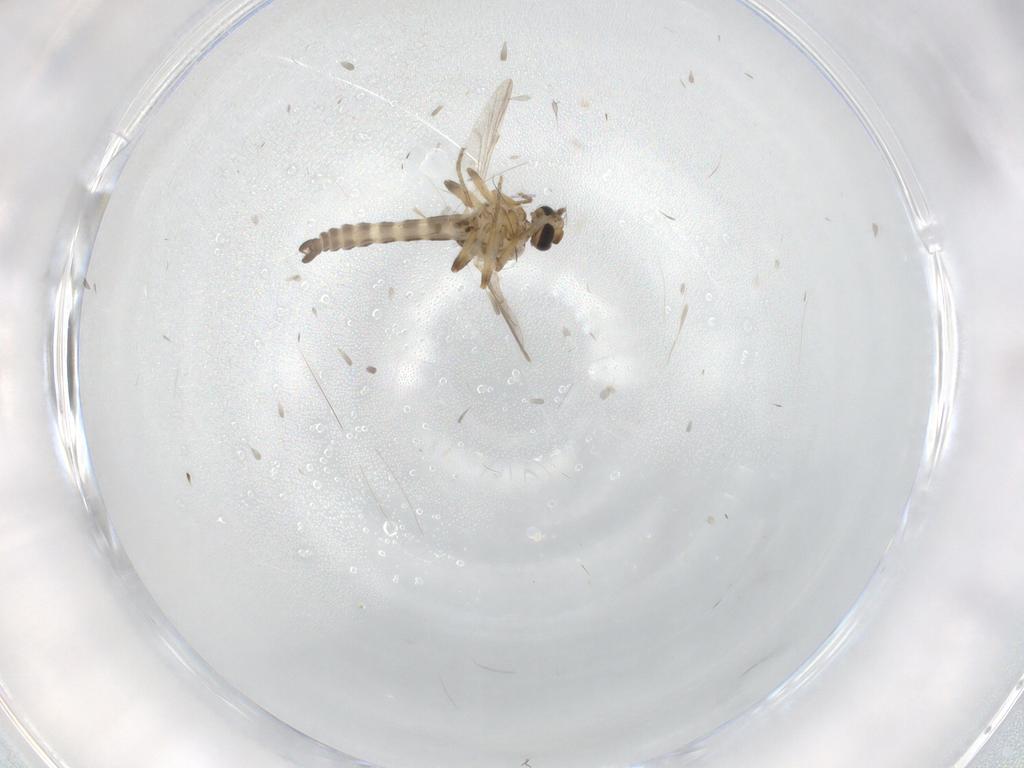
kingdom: Animalia
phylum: Arthropoda
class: Insecta
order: Diptera
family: Ceratopogonidae
